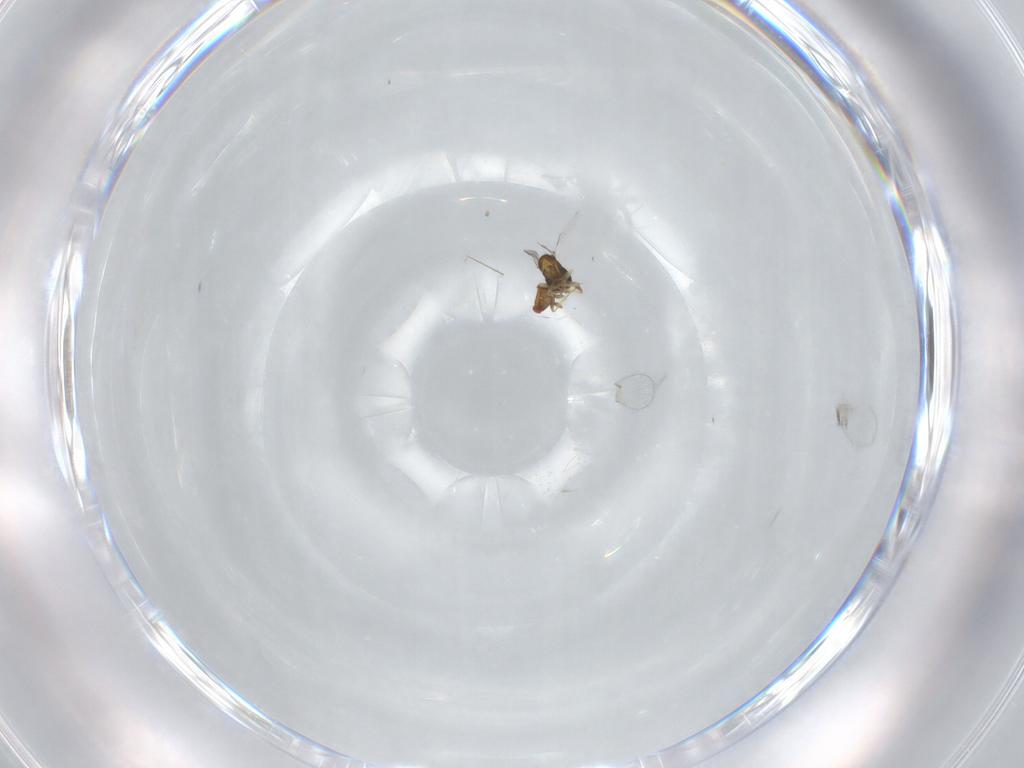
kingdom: Animalia
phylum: Arthropoda
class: Insecta
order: Hymenoptera
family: Trichogrammatidae
